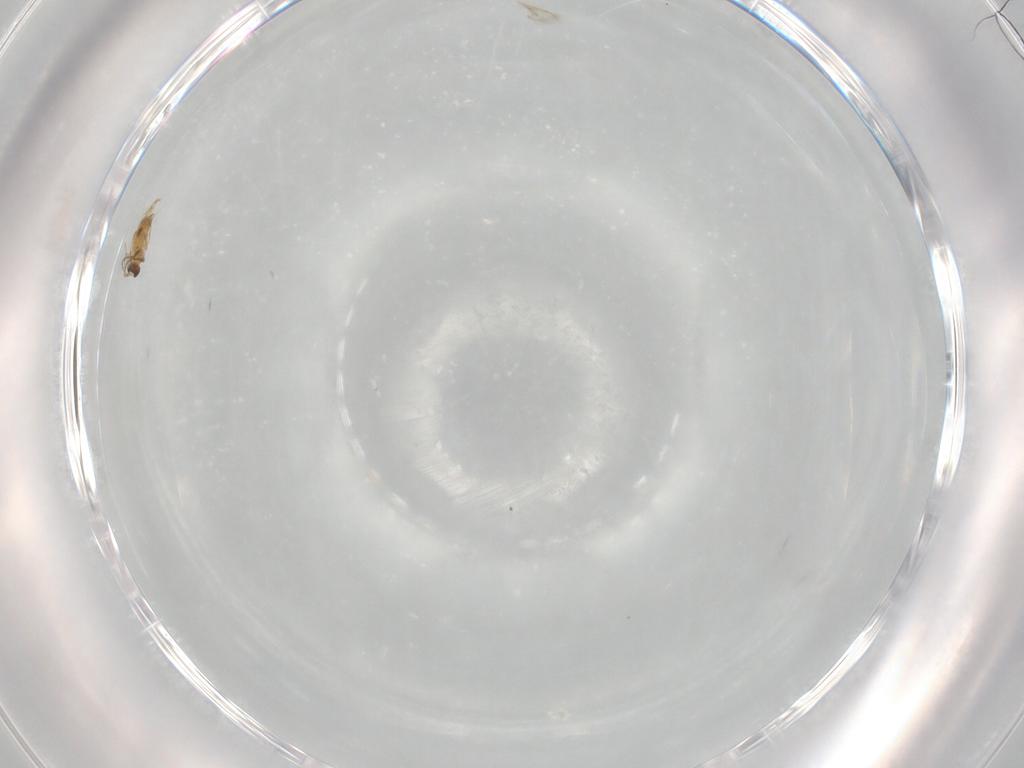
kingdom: Animalia
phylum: Arthropoda
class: Insecta
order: Hymenoptera
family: Mymaridae
